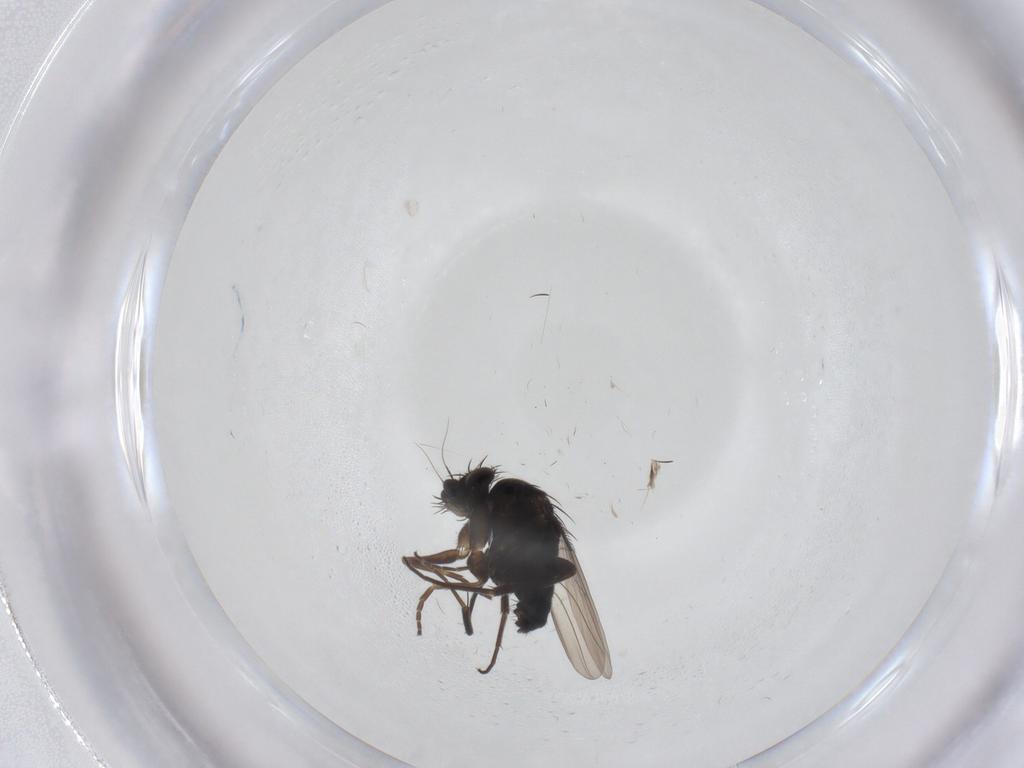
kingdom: Animalia
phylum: Arthropoda
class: Insecta
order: Diptera
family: Phoridae
